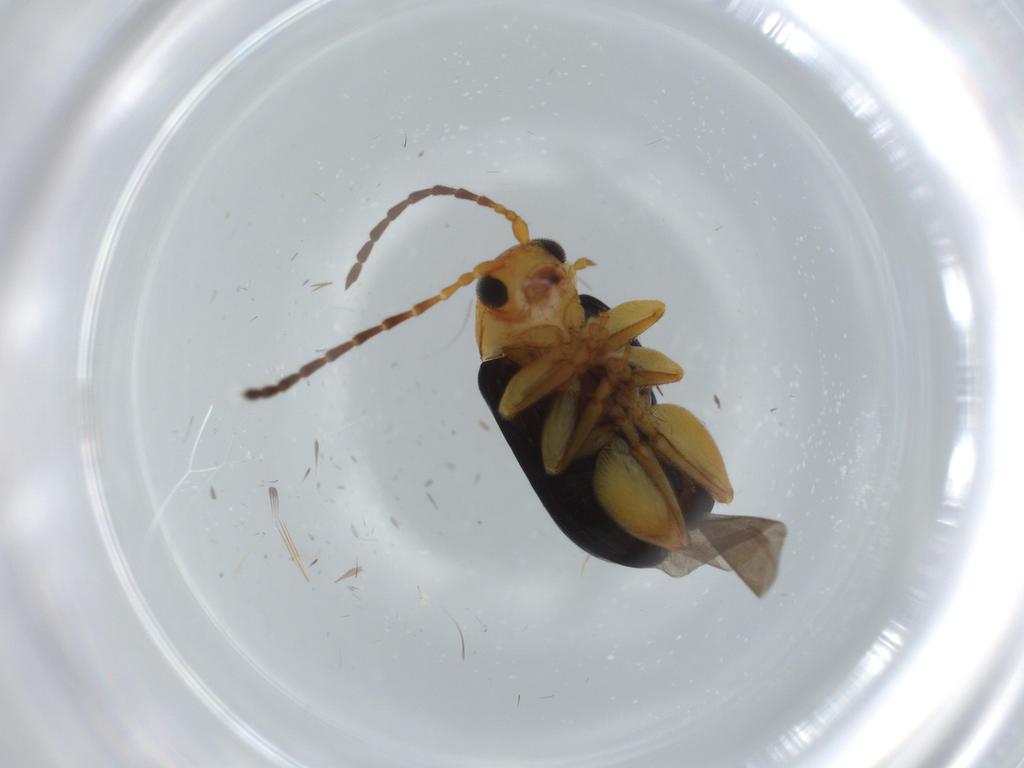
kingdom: Animalia
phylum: Arthropoda
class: Insecta
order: Coleoptera
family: Chrysomelidae
